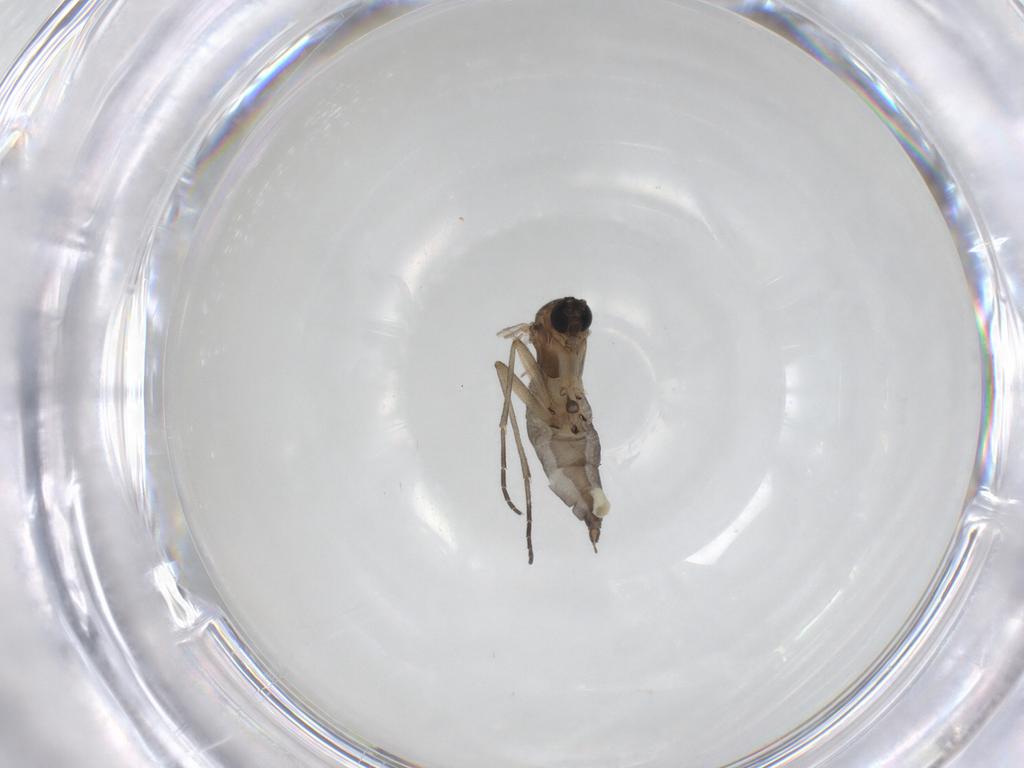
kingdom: Animalia
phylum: Arthropoda
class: Insecta
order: Diptera
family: Sciaridae
